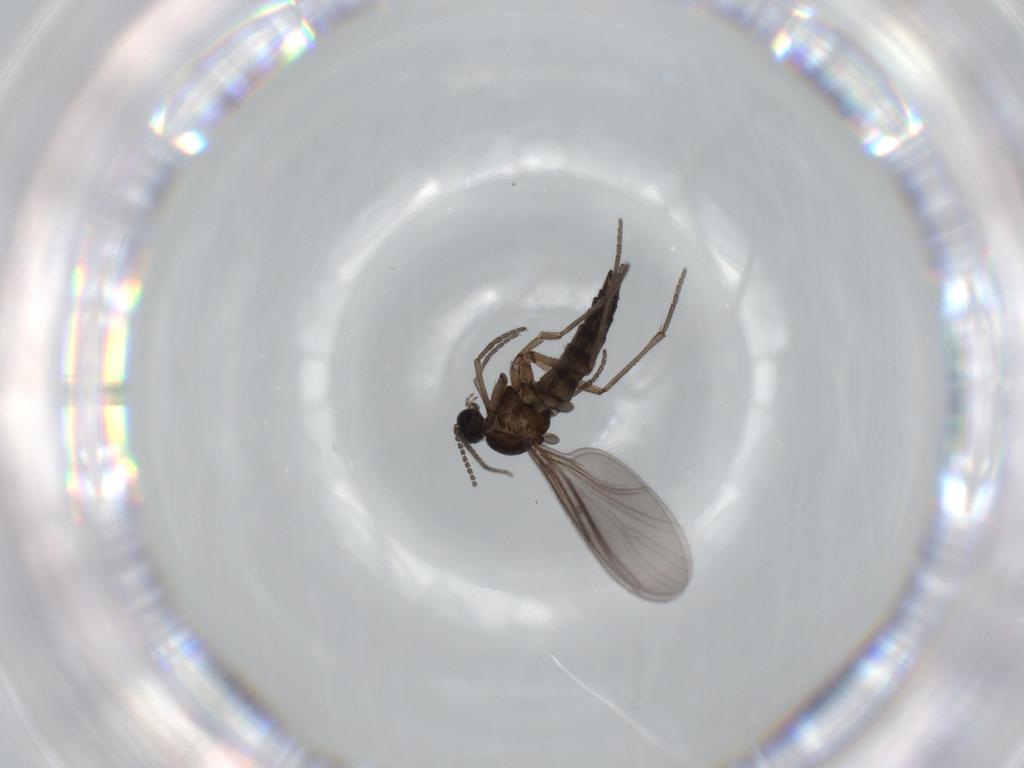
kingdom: Animalia
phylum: Arthropoda
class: Insecta
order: Diptera
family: Sciaridae
